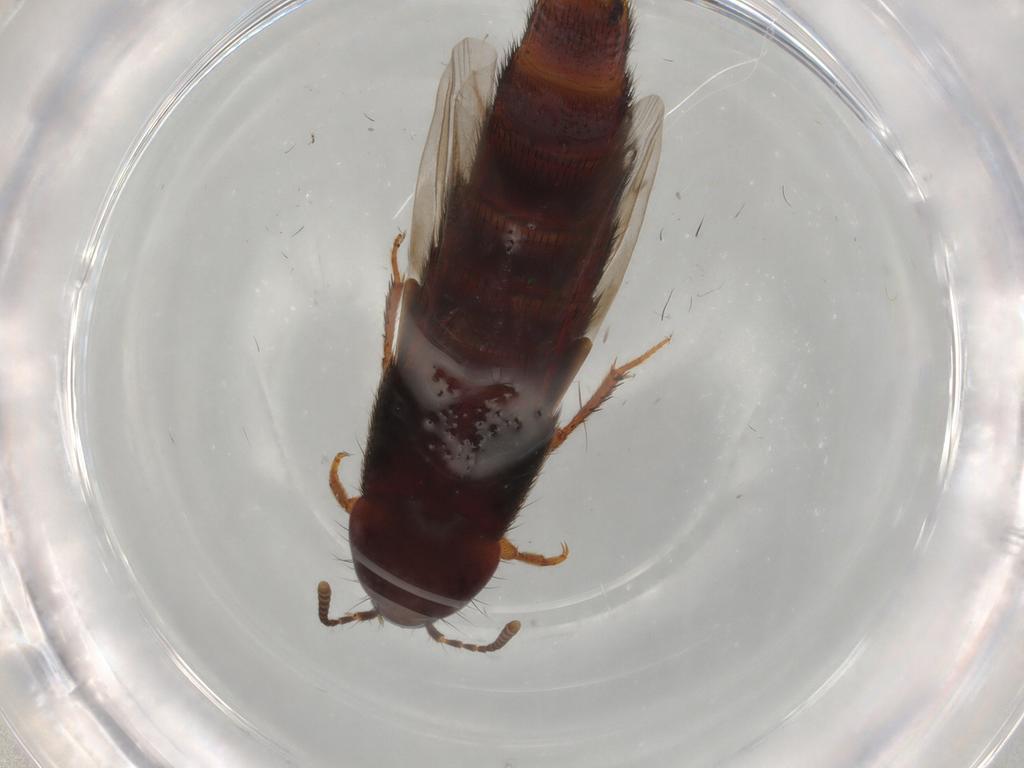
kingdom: Animalia
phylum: Arthropoda
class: Insecta
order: Coleoptera
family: Staphylinidae
